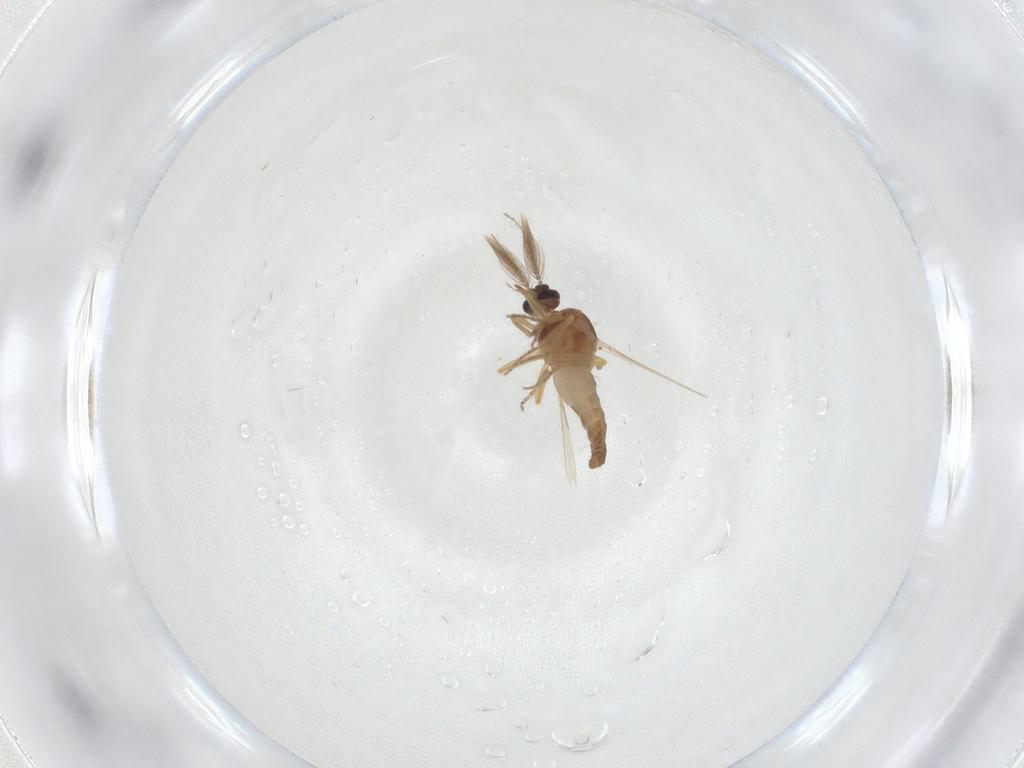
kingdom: Animalia
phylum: Arthropoda
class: Insecta
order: Diptera
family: Ceratopogonidae
